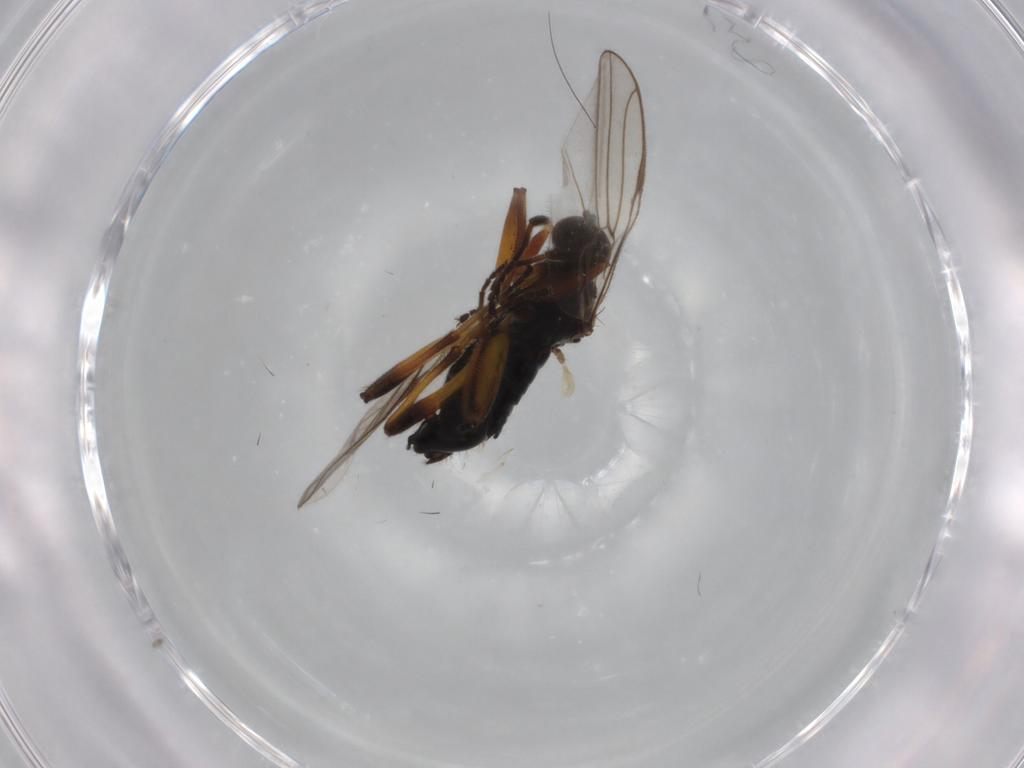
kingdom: Animalia
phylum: Arthropoda
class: Insecta
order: Diptera
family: Hybotidae
